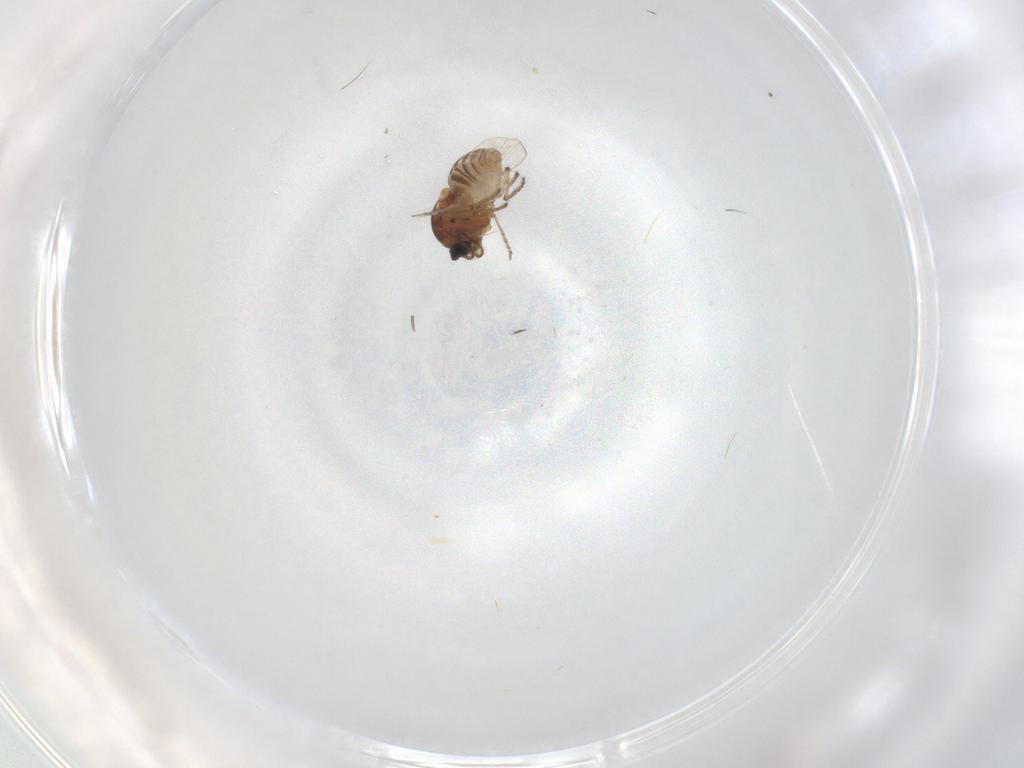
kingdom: Animalia
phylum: Arthropoda
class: Insecta
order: Diptera
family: Ceratopogonidae
